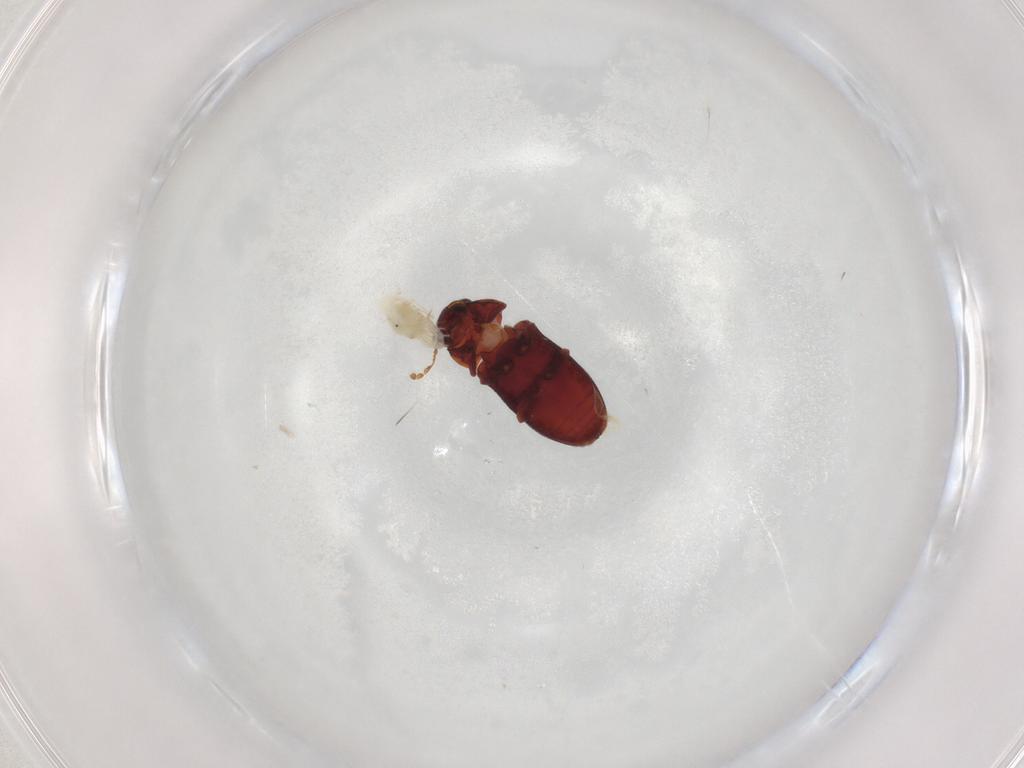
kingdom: Animalia
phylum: Arthropoda
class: Insecta
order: Coleoptera
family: Ptinidae
